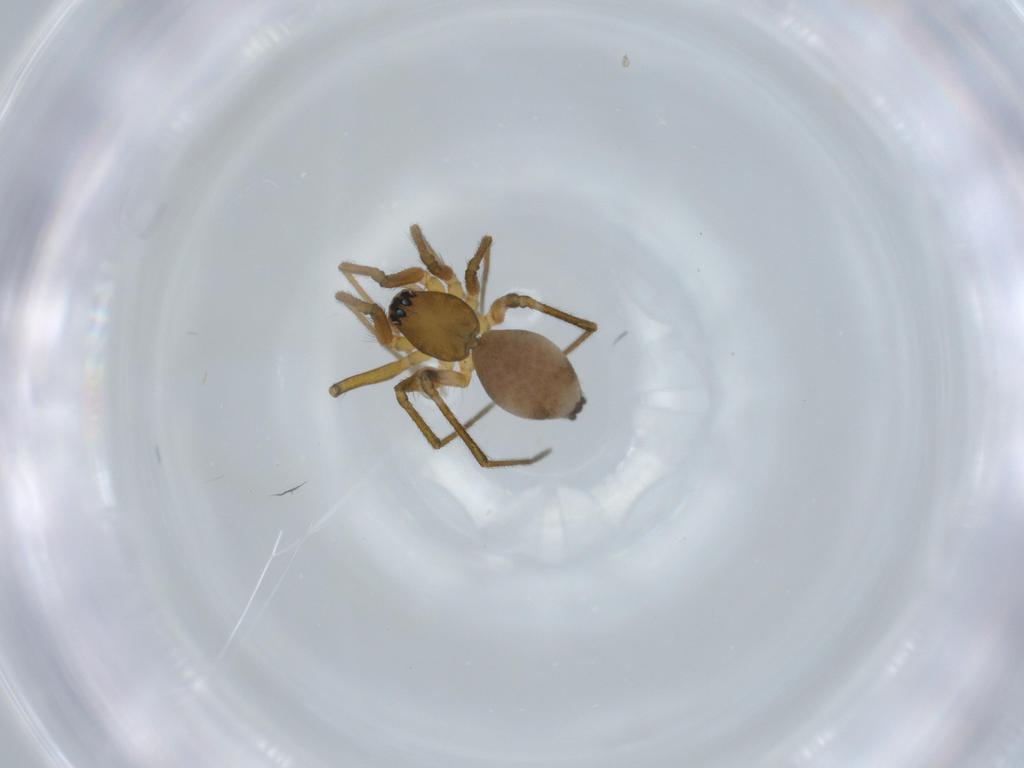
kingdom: Animalia
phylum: Arthropoda
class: Arachnida
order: Araneae
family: Linyphiidae
